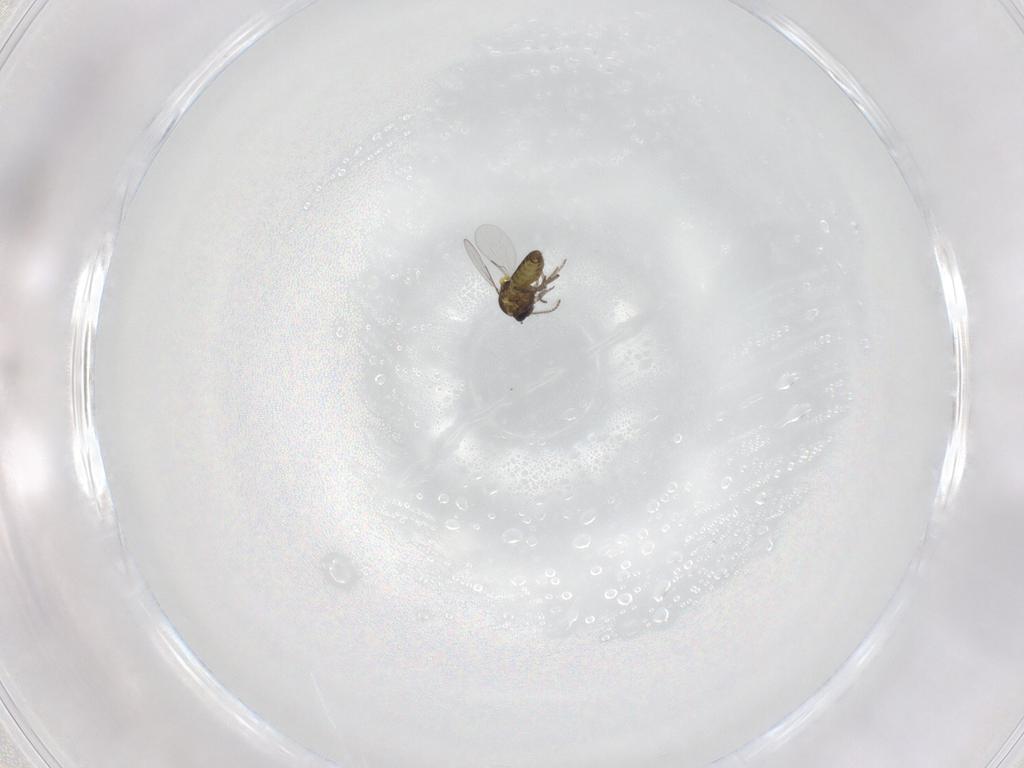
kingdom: Animalia
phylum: Arthropoda
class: Insecta
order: Diptera
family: Ceratopogonidae
